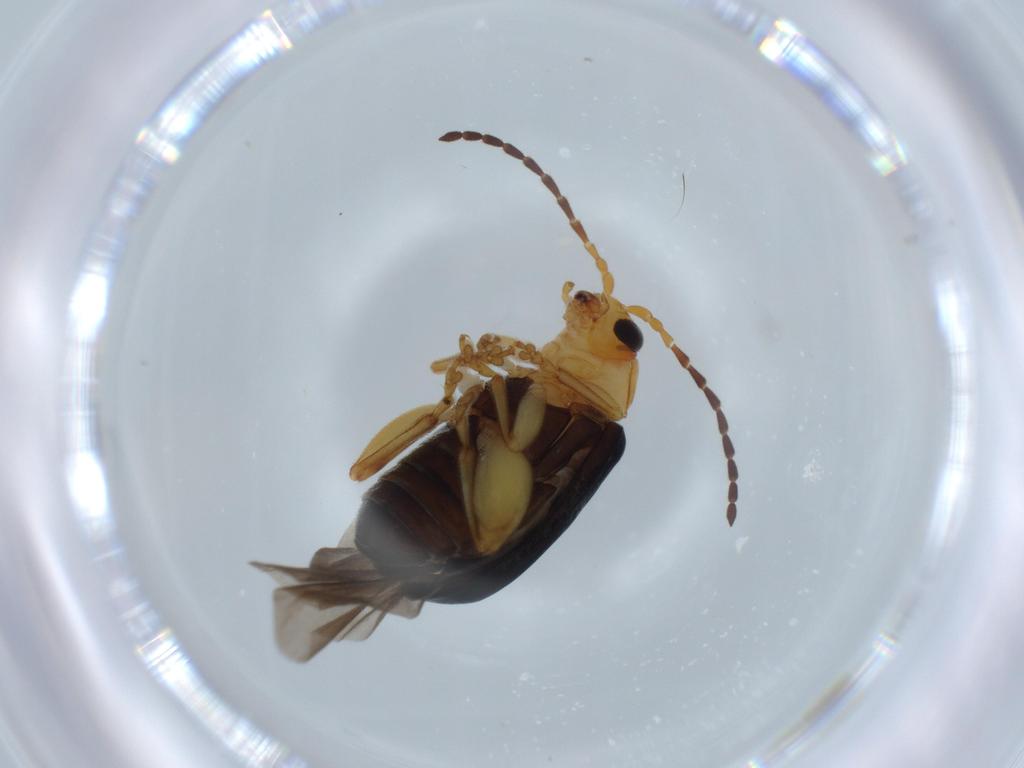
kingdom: Animalia
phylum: Arthropoda
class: Insecta
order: Coleoptera
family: Chrysomelidae
